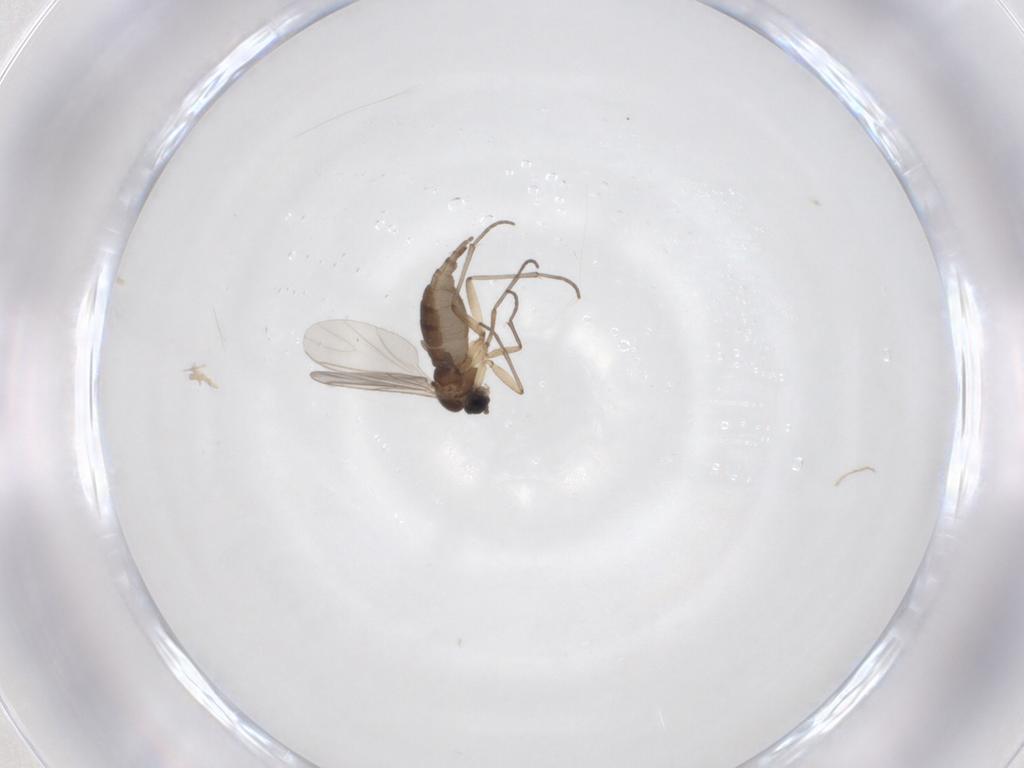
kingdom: Animalia
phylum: Arthropoda
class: Insecta
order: Diptera
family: Sciaridae
